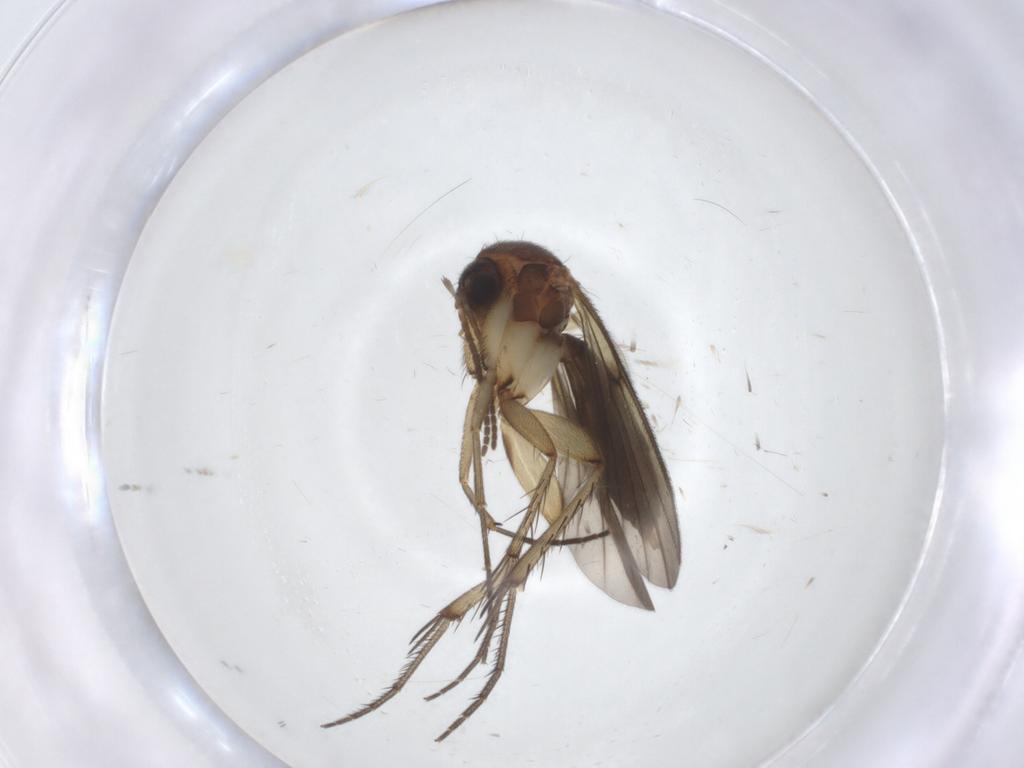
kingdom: Animalia
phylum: Arthropoda
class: Insecta
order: Diptera
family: Mycetophilidae
